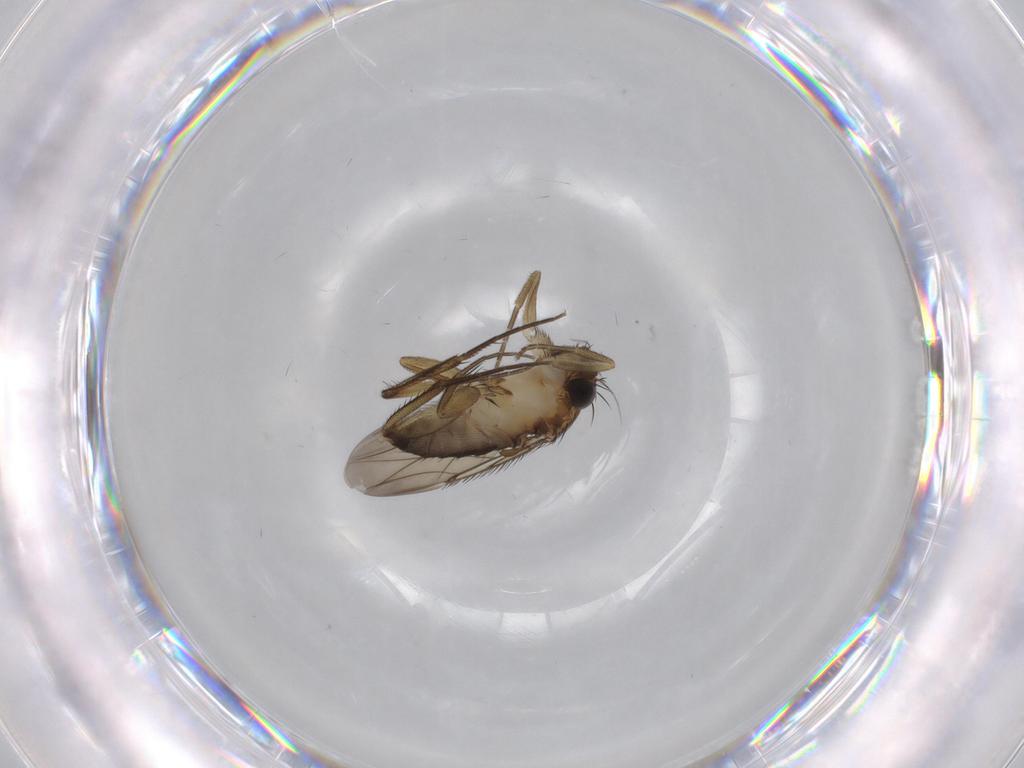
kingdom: Animalia
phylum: Arthropoda
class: Insecta
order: Diptera
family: Phoridae
